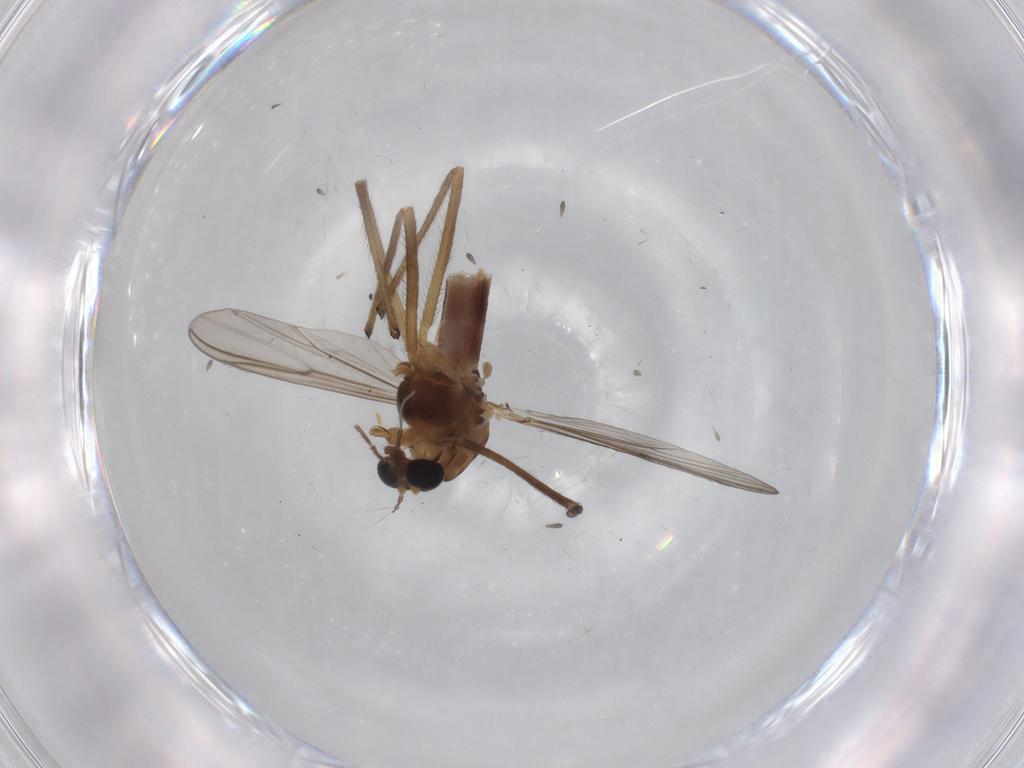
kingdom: Animalia
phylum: Arthropoda
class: Insecta
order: Diptera
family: Chironomidae
